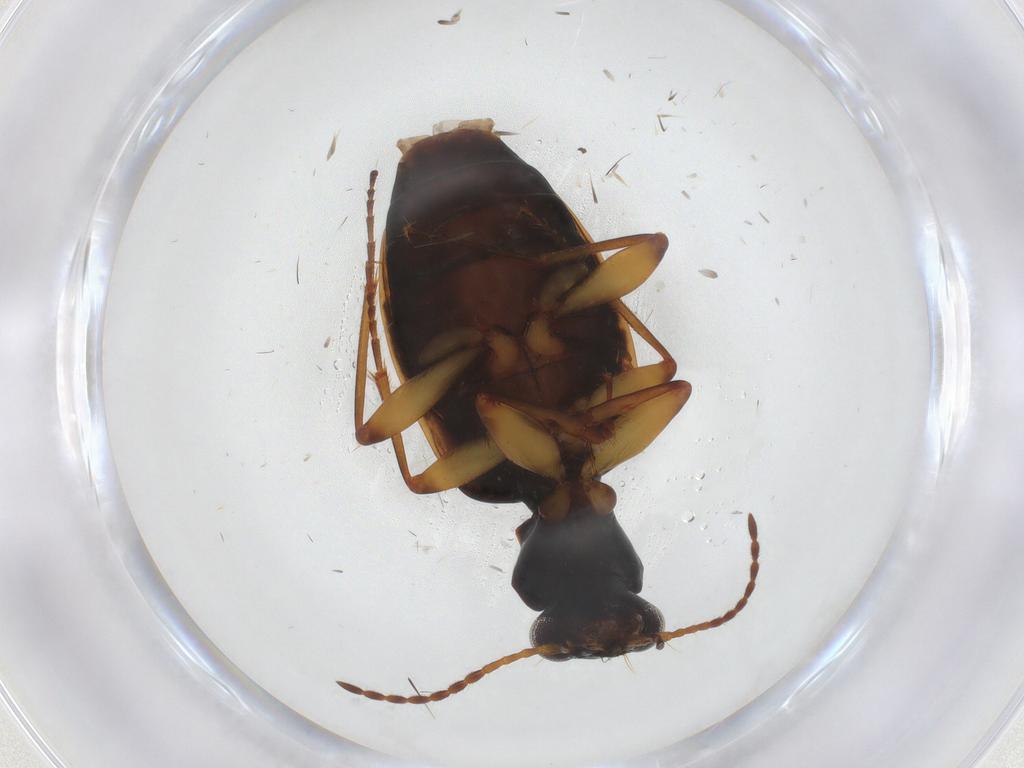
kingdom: Animalia
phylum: Arthropoda
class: Insecta
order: Coleoptera
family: Carabidae
